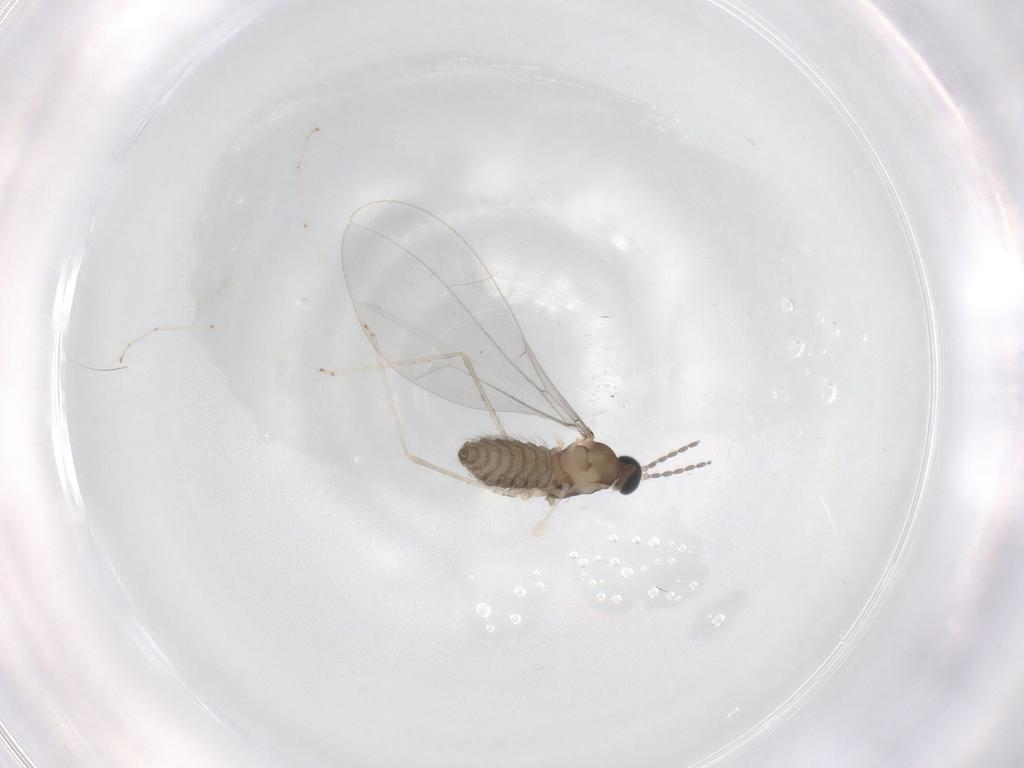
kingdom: Animalia
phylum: Arthropoda
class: Insecta
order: Diptera
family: Cecidomyiidae
